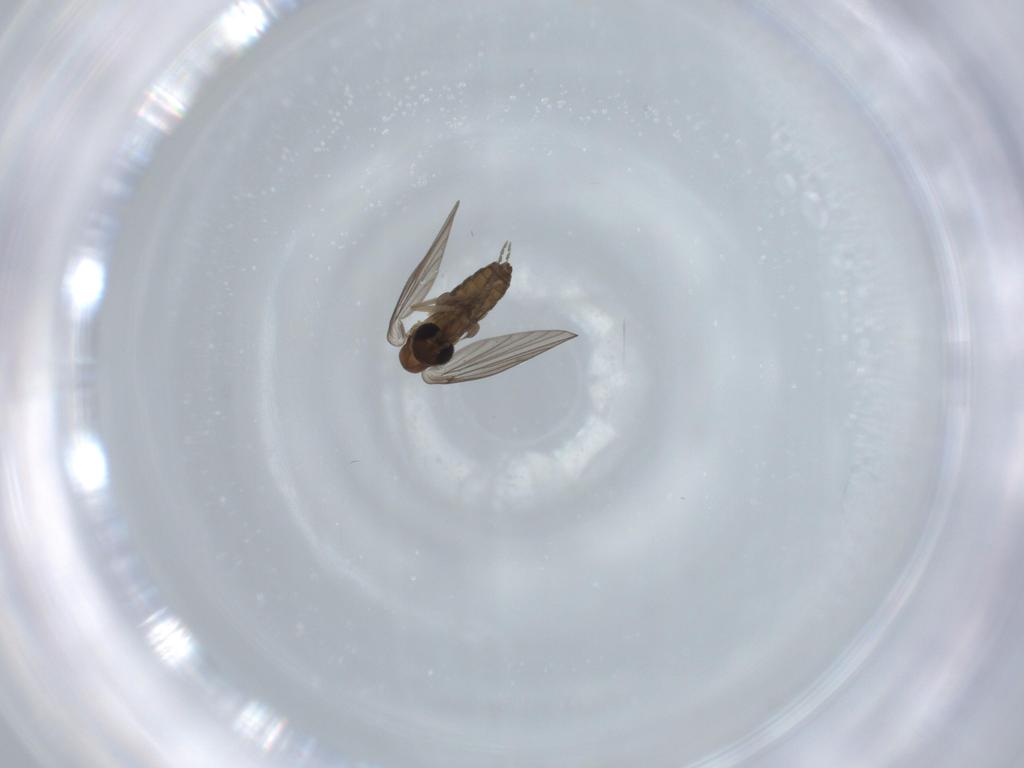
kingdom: Animalia
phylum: Arthropoda
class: Insecta
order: Diptera
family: Psychodidae
